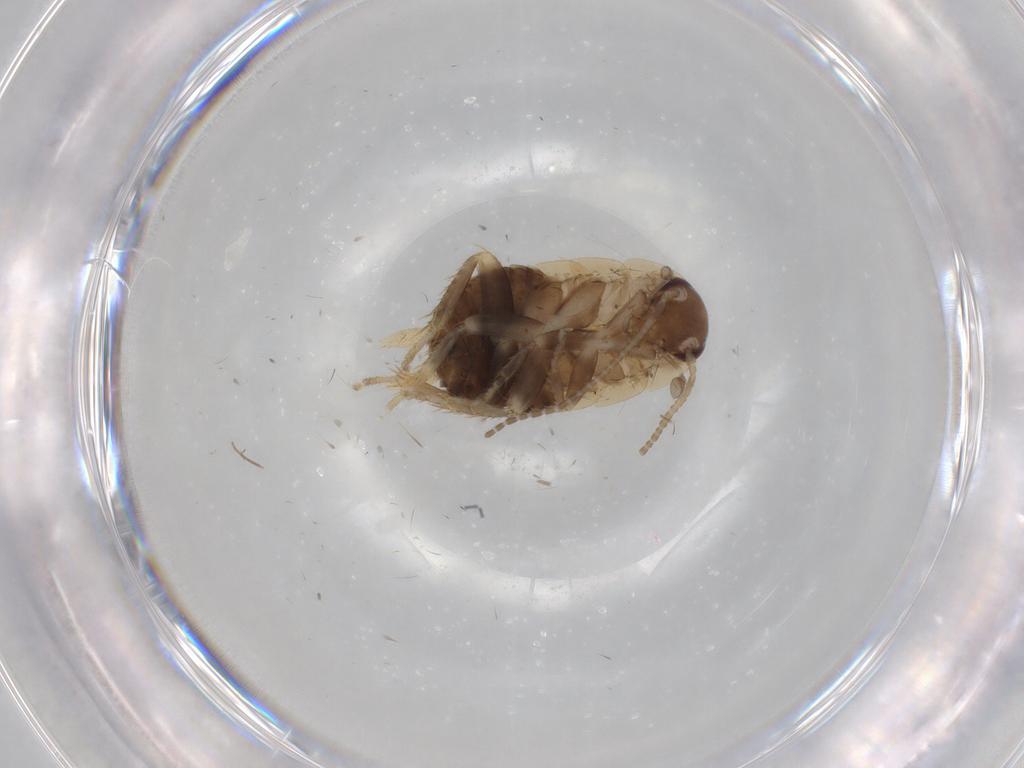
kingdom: Animalia
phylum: Arthropoda
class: Insecta
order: Blattodea
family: Ectobiidae
